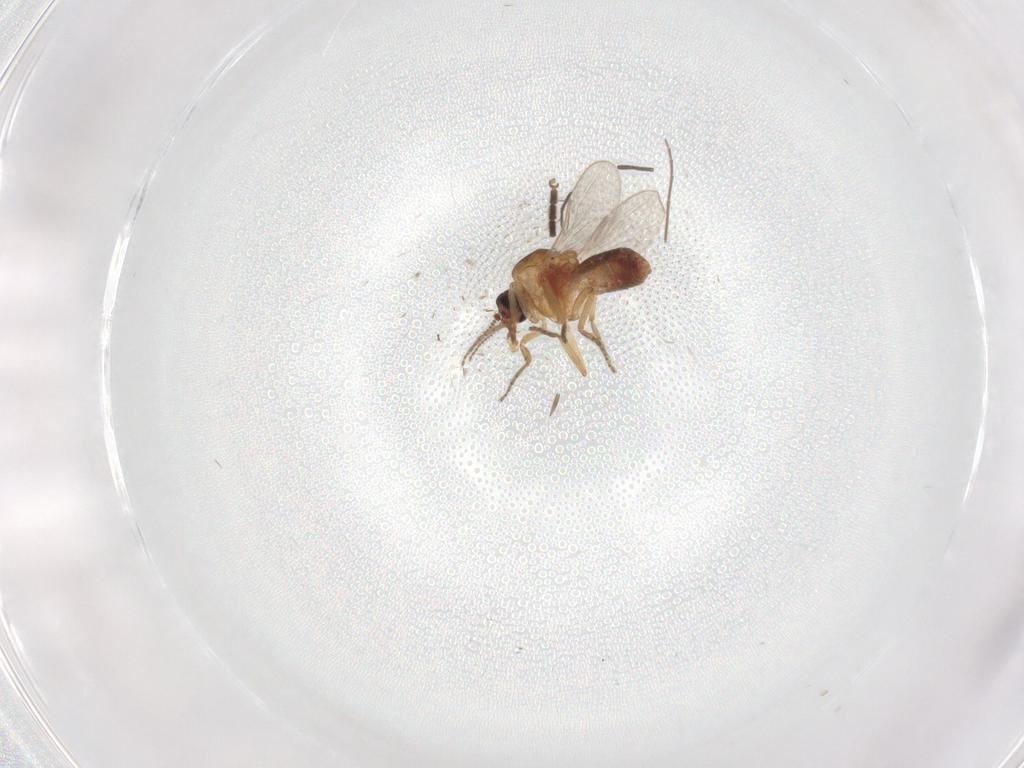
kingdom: Animalia
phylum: Arthropoda
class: Insecta
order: Diptera
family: Ceratopogonidae
